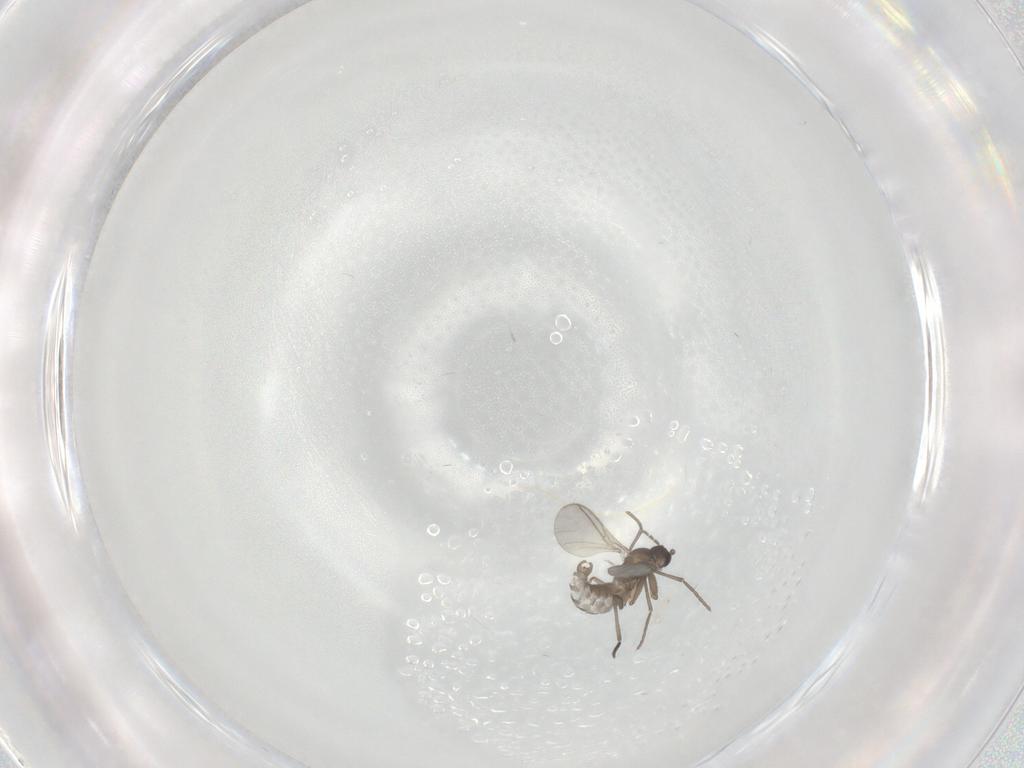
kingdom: Animalia
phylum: Arthropoda
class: Insecta
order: Diptera
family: Sciaridae
